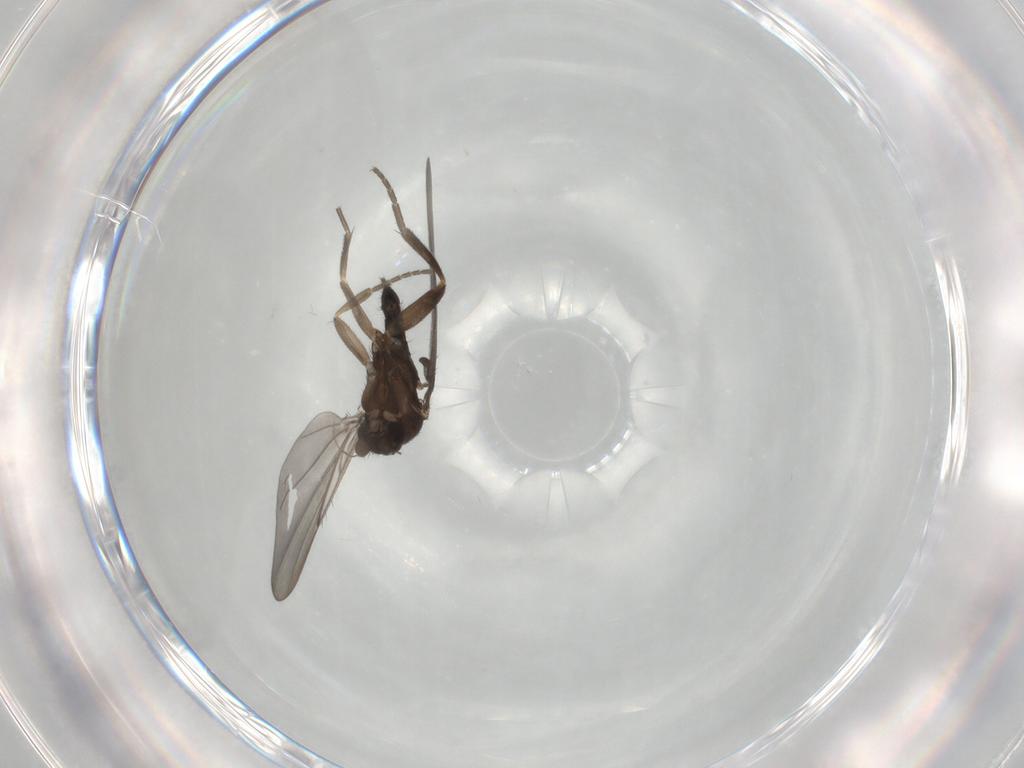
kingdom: Animalia
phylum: Arthropoda
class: Insecta
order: Diptera
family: Phoridae
